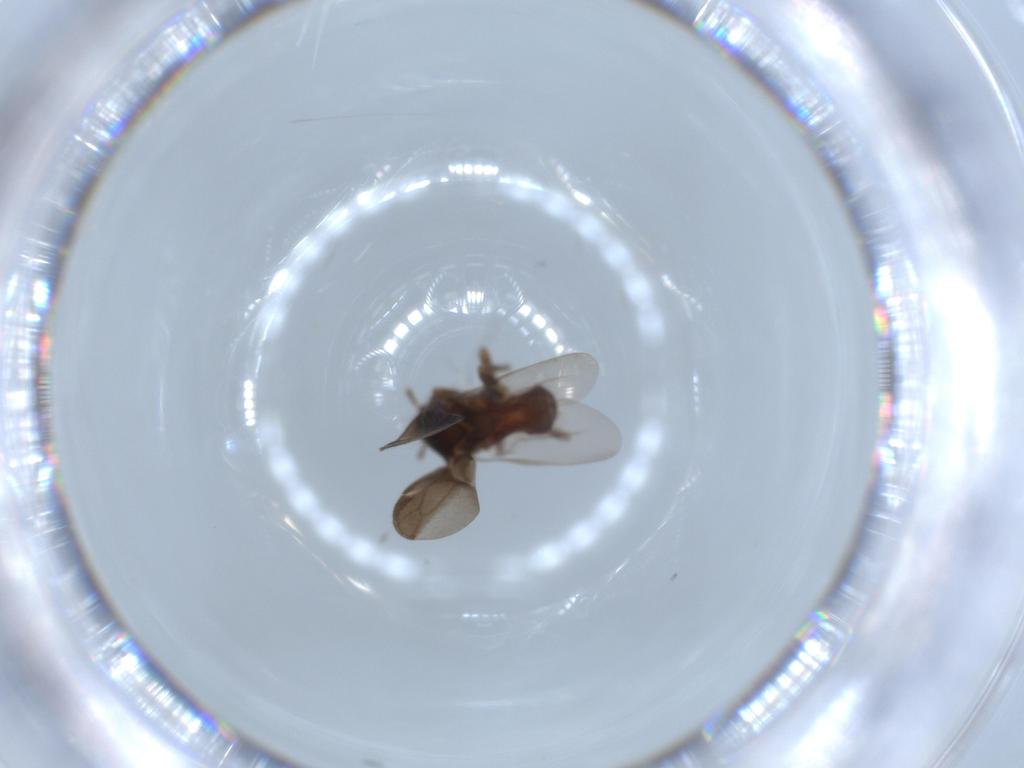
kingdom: Animalia
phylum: Arthropoda
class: Insecta
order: Hemiptera
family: Ceratocombidae
